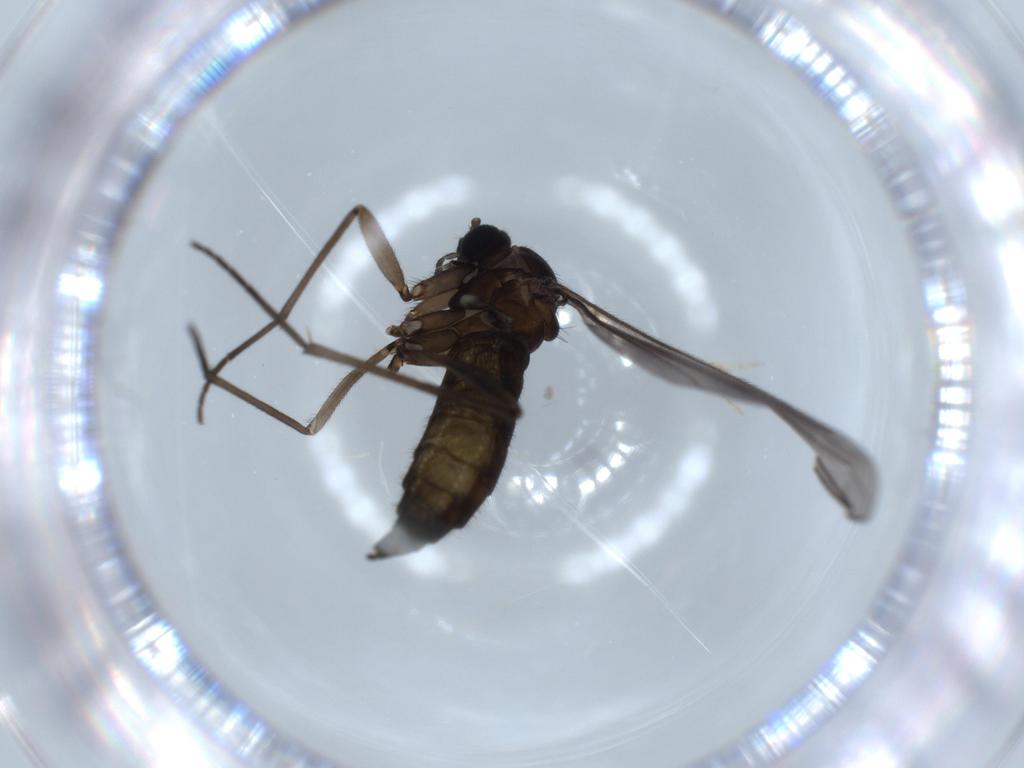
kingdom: Animalia
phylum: Arthropoda
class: Insecta
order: Diptera
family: Sciaridae
